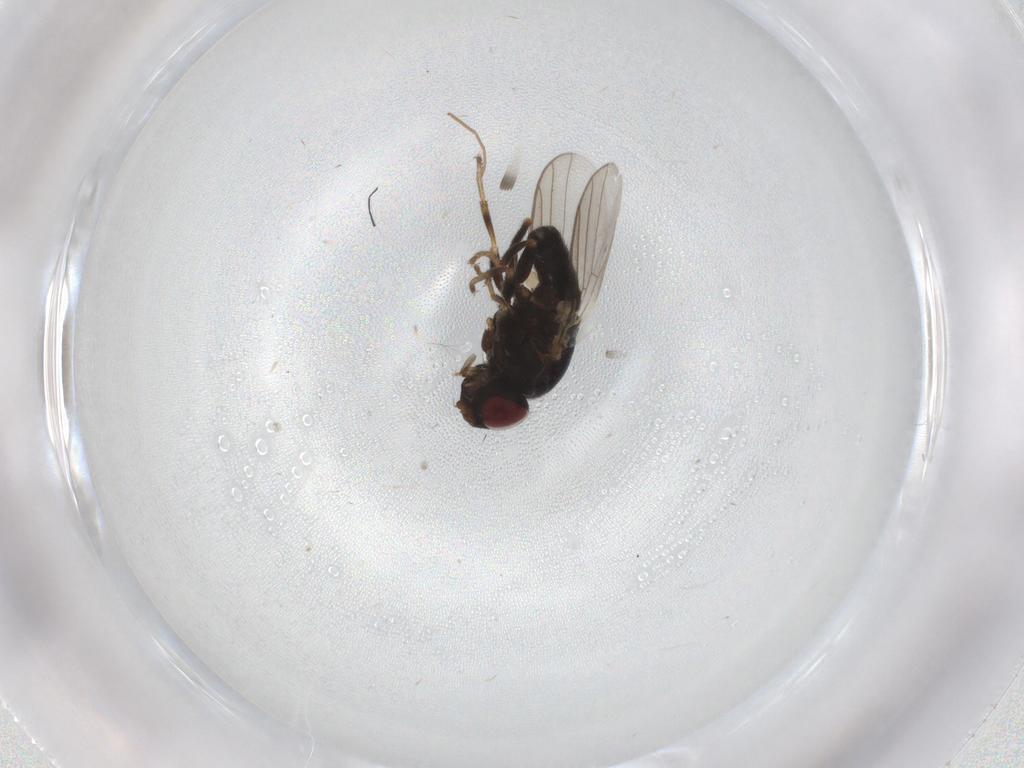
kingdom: Animalia
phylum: Arthropoda
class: Insecta
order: Diptera
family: Chloropidae
